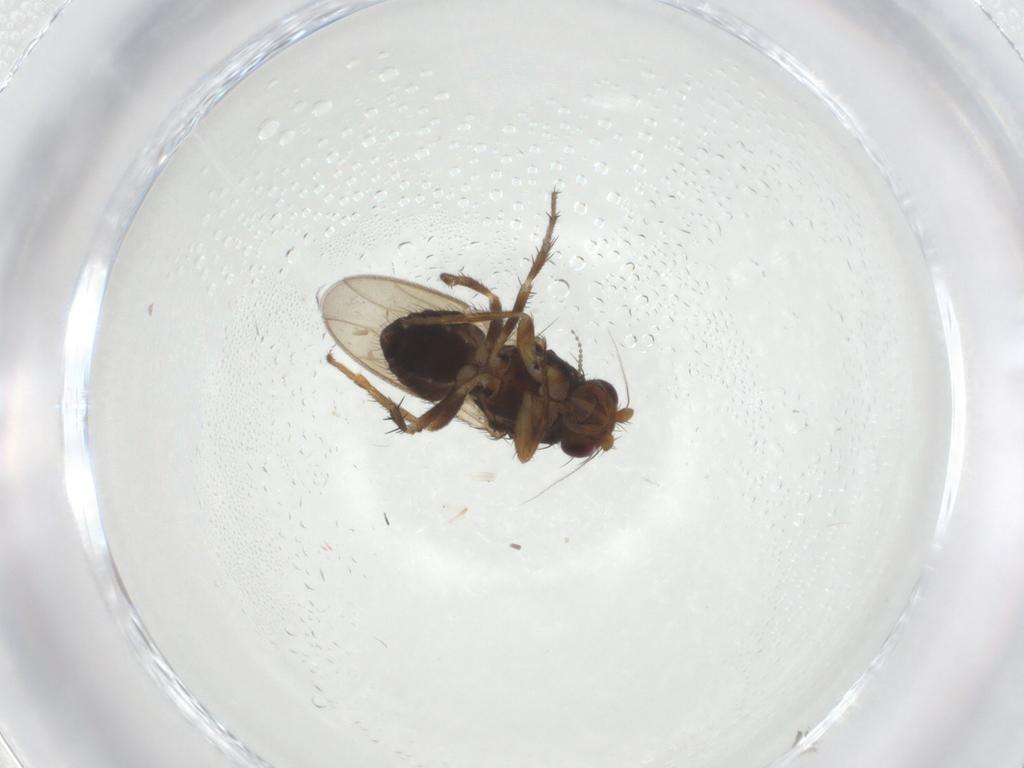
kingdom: Animalia
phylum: Arthropoda
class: Insecta
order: Diptera
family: Sphaeroceridae
